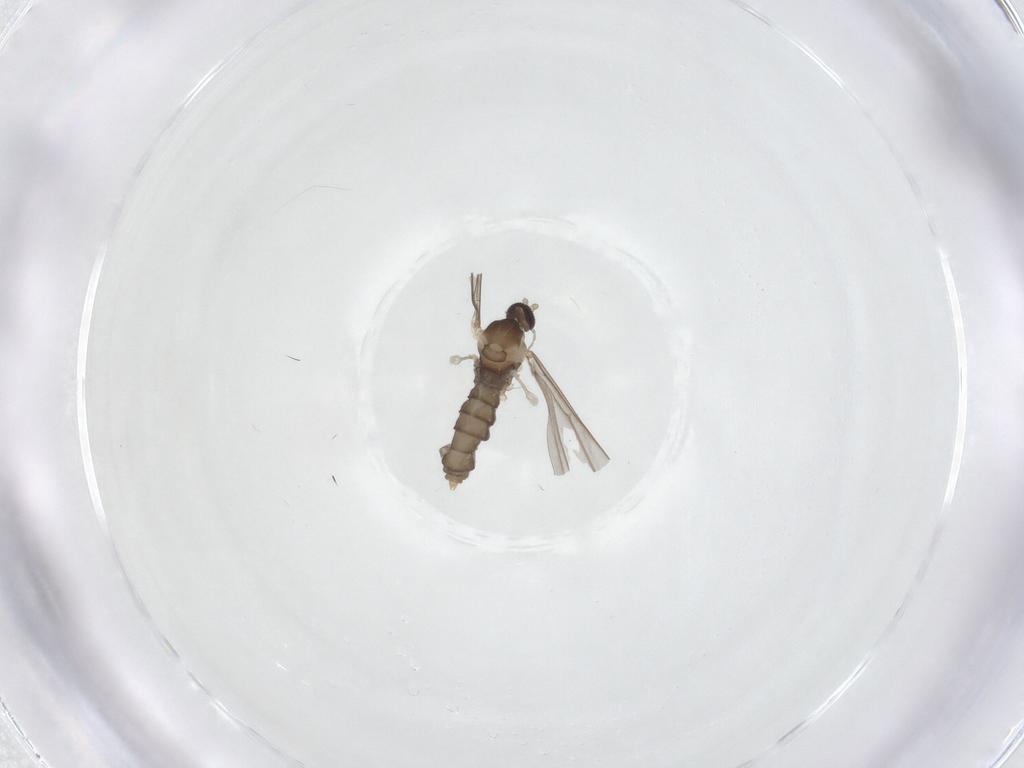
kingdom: Animalia
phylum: Arthropoda
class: Insecta
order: Diptera
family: Cecidomyiidae
